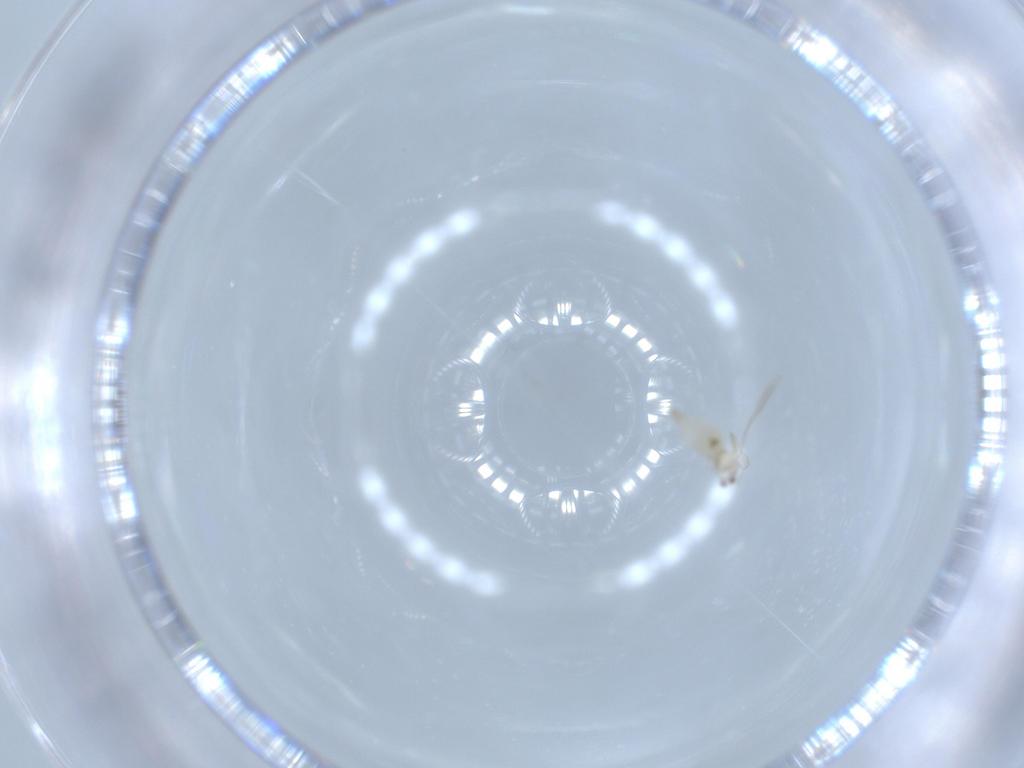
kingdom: Animalia
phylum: Arthropoda
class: Insecta
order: Diptera
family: Cecidomyiidae
